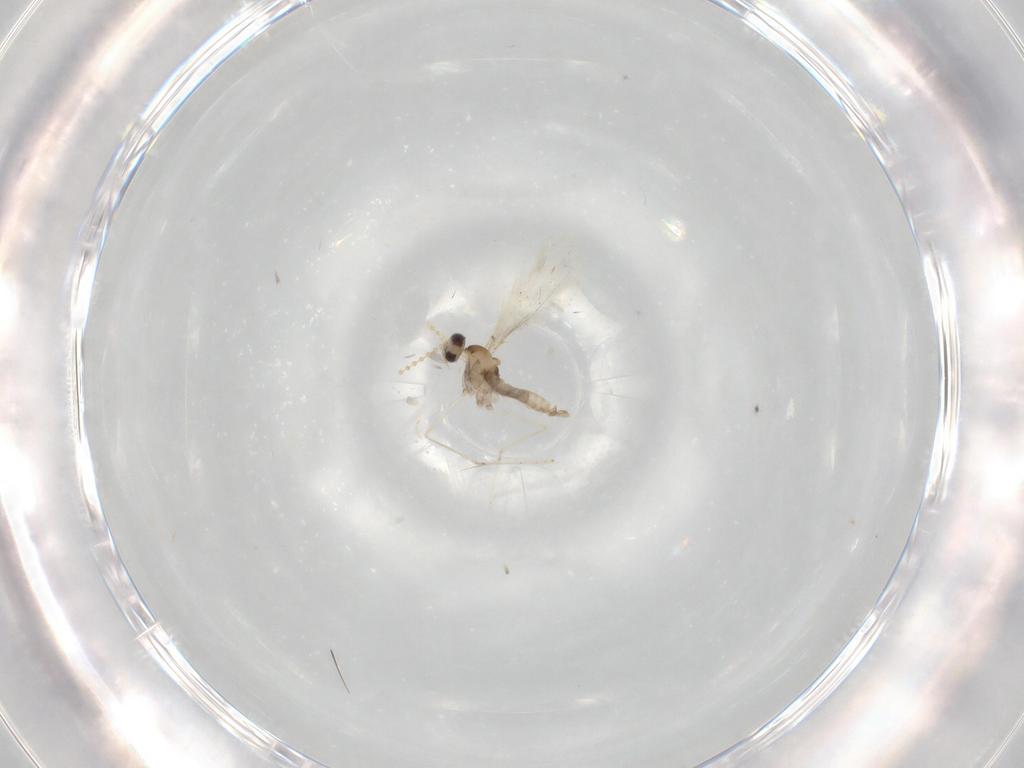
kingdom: Animalia
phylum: Arthropoda
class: Insecta
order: Diptera
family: Cecidomyiidae
